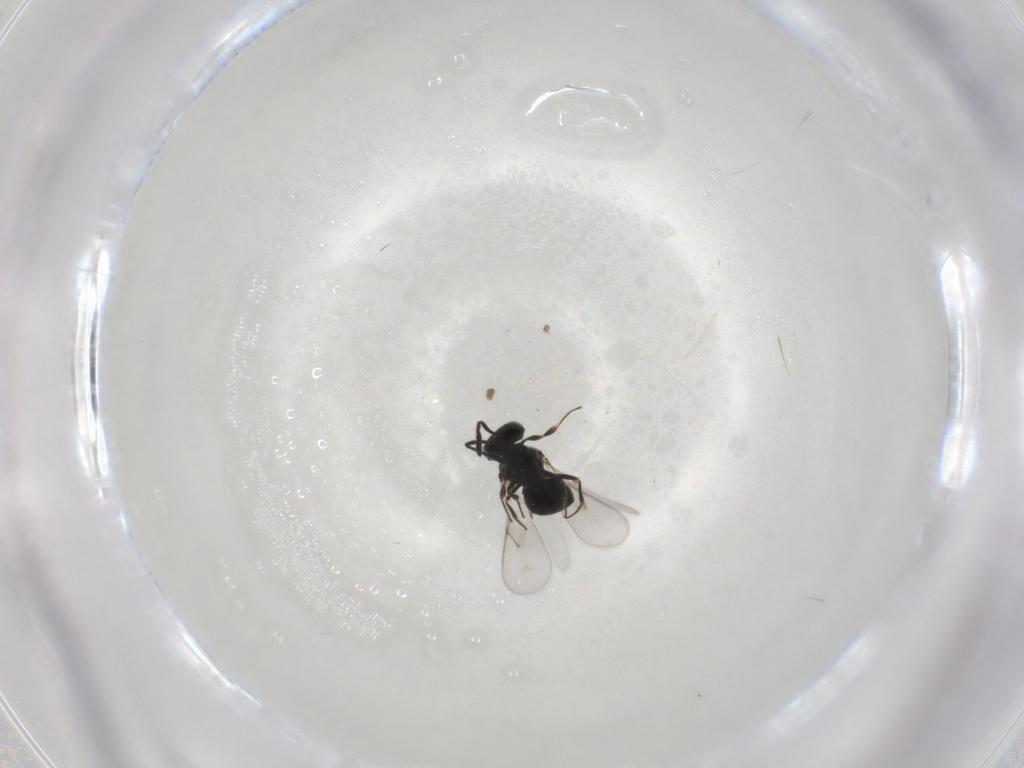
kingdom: Animalia
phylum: Arthropoda
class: Insecta
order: Hymenoptera
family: Scelionidae
